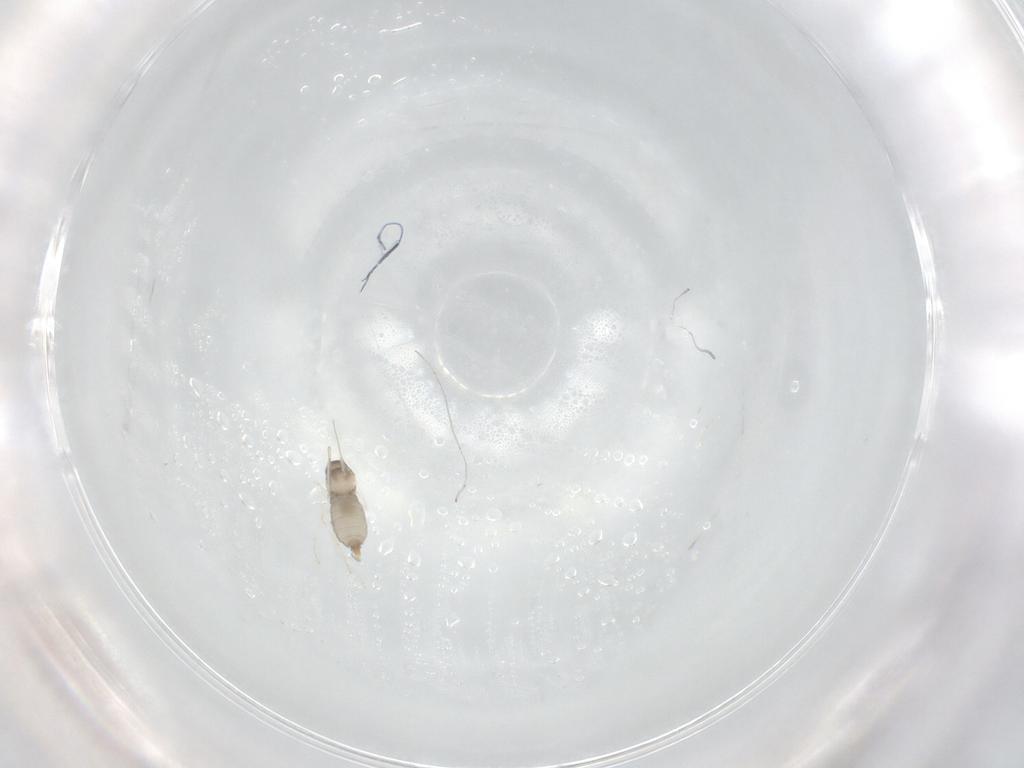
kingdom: Animalia
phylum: Arthropoda
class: Insecta
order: Diptera
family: Cecidomyiidae
